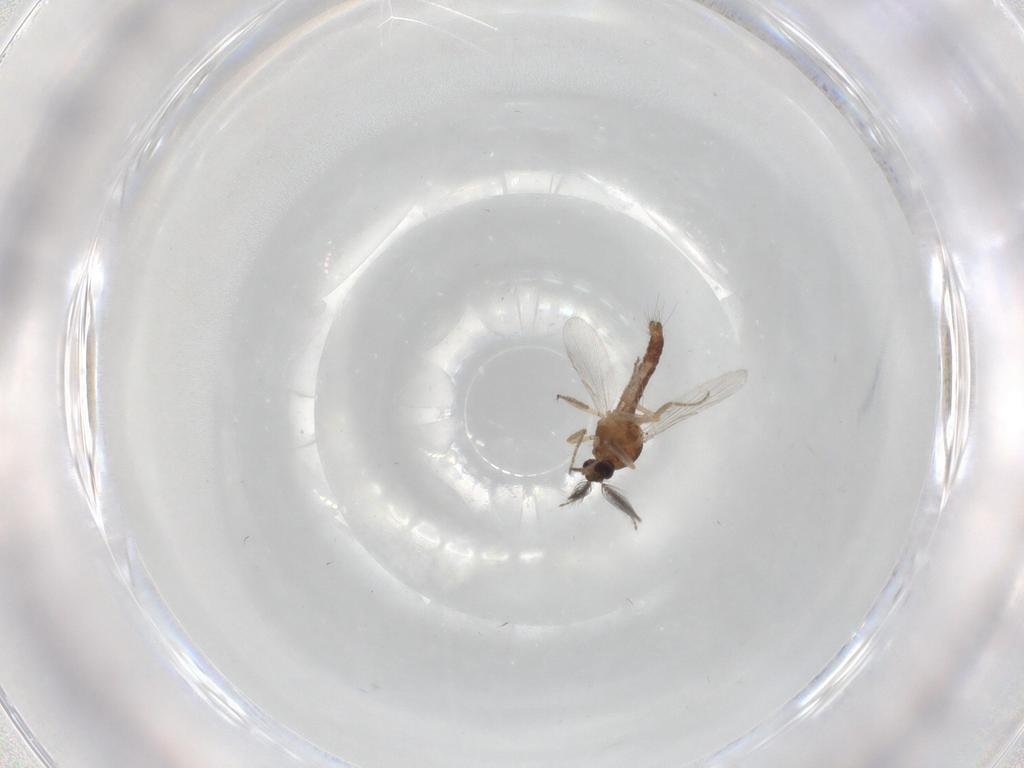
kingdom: Animalia
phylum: Arthropoda
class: Insecta
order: Diptera
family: Ceratopogonidae
